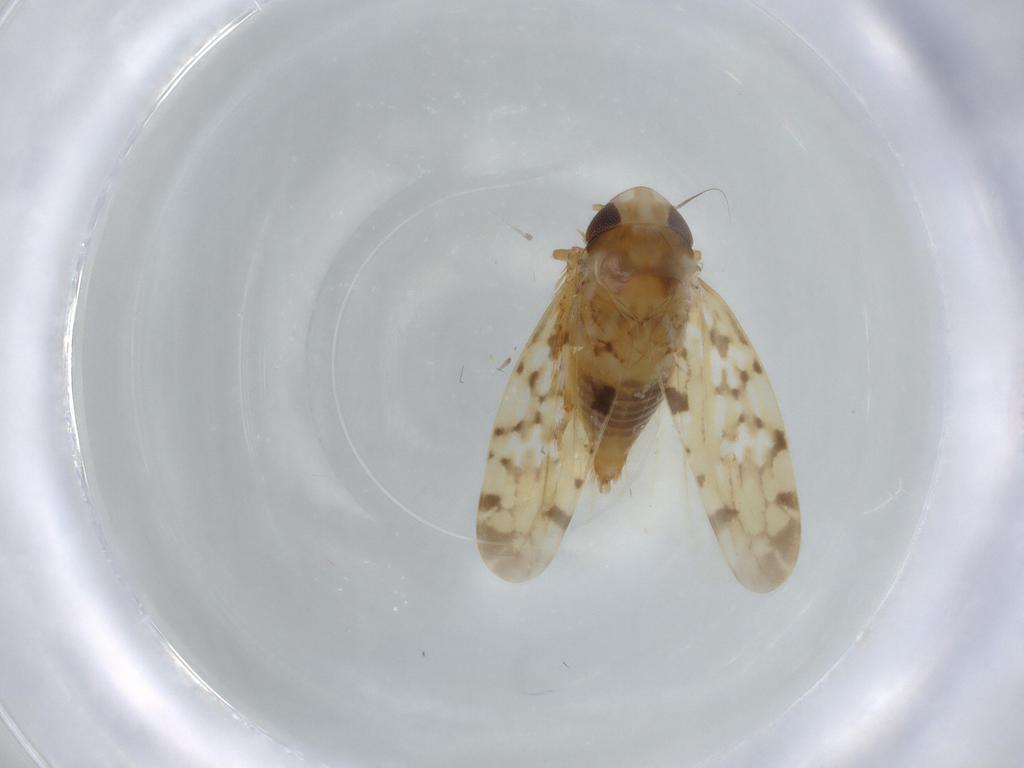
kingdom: Animalia
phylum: Arthropoda
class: Insecta
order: Hemiptera
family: Cicadellidae
